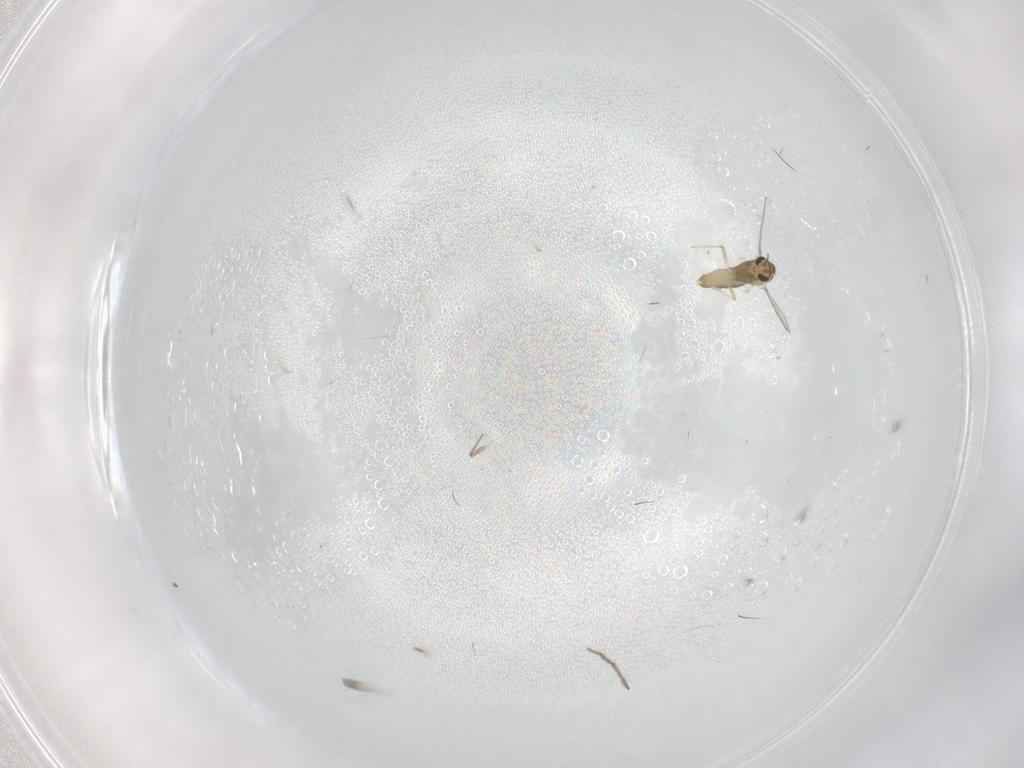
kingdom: Animalia
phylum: Arthropoda
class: Insecta
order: Diptera
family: Chironomidae
